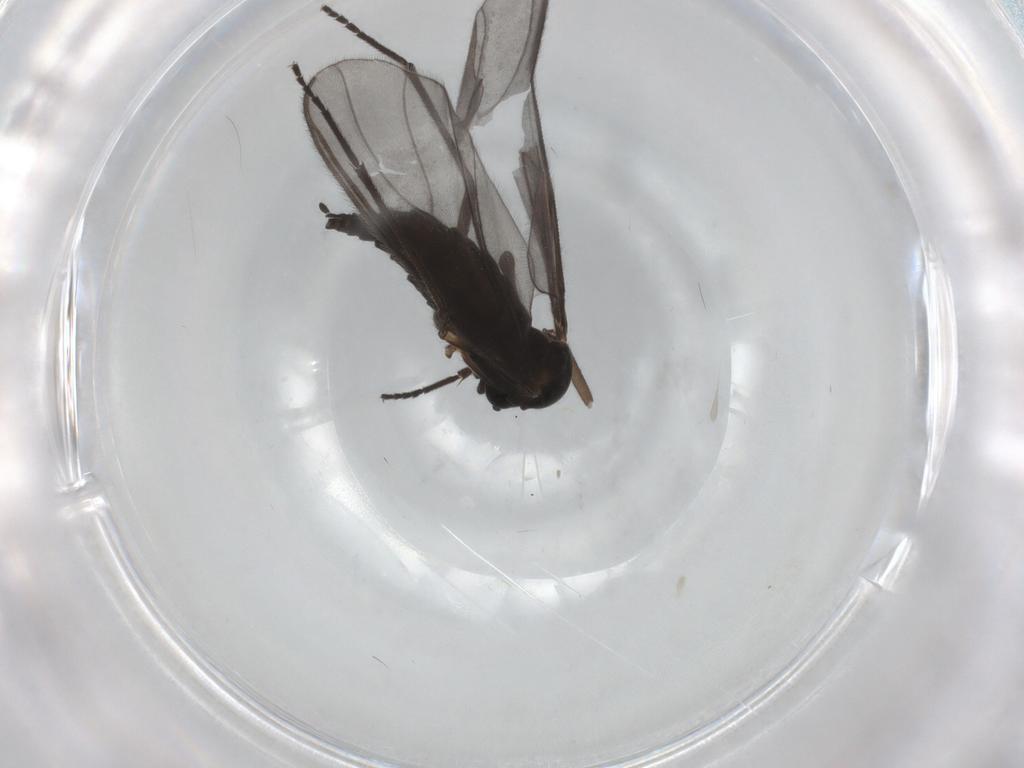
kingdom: Animalia
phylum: Arthropoda
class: Insecta
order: Diptera
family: Sciaridae
